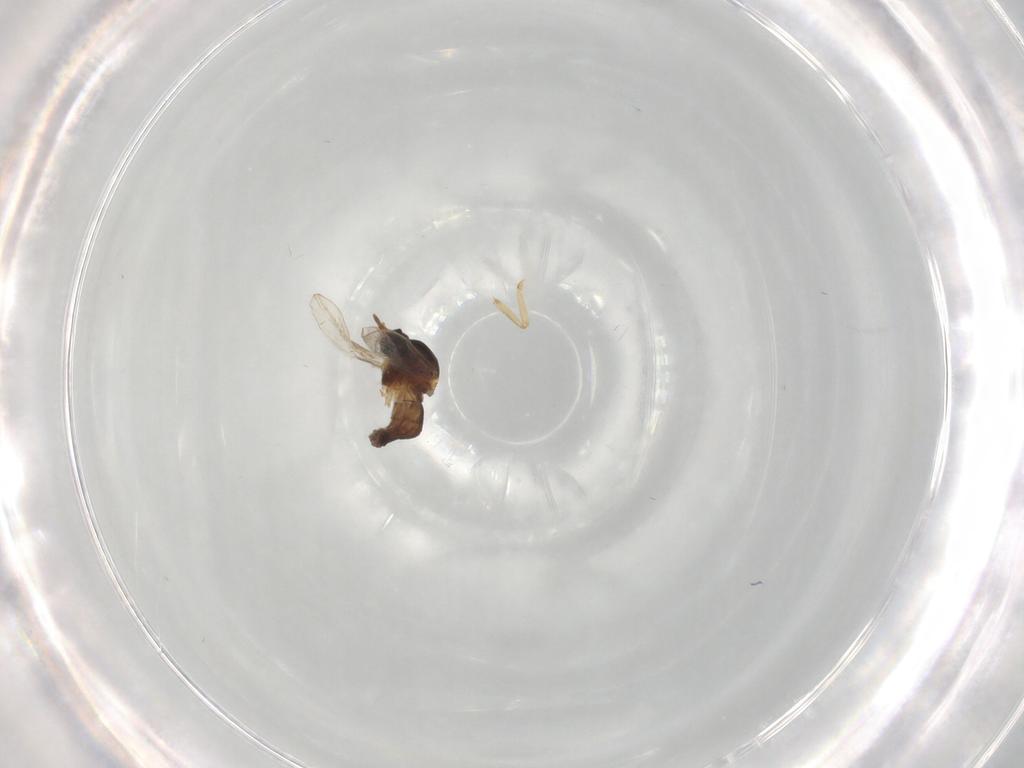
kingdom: Animalia
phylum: Arthropoda
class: Insecta
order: Diptera
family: Ceratopogonidae
